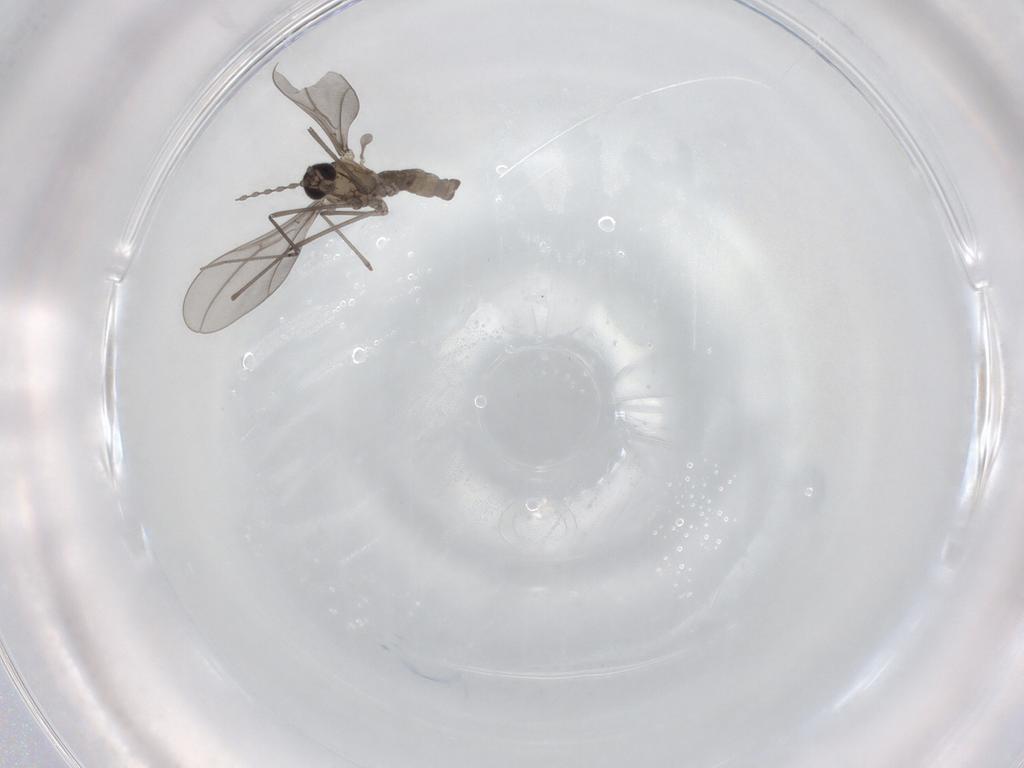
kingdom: Animalia
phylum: Arthropoda
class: Insecta
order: Diptera
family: Cecidomyiidae
